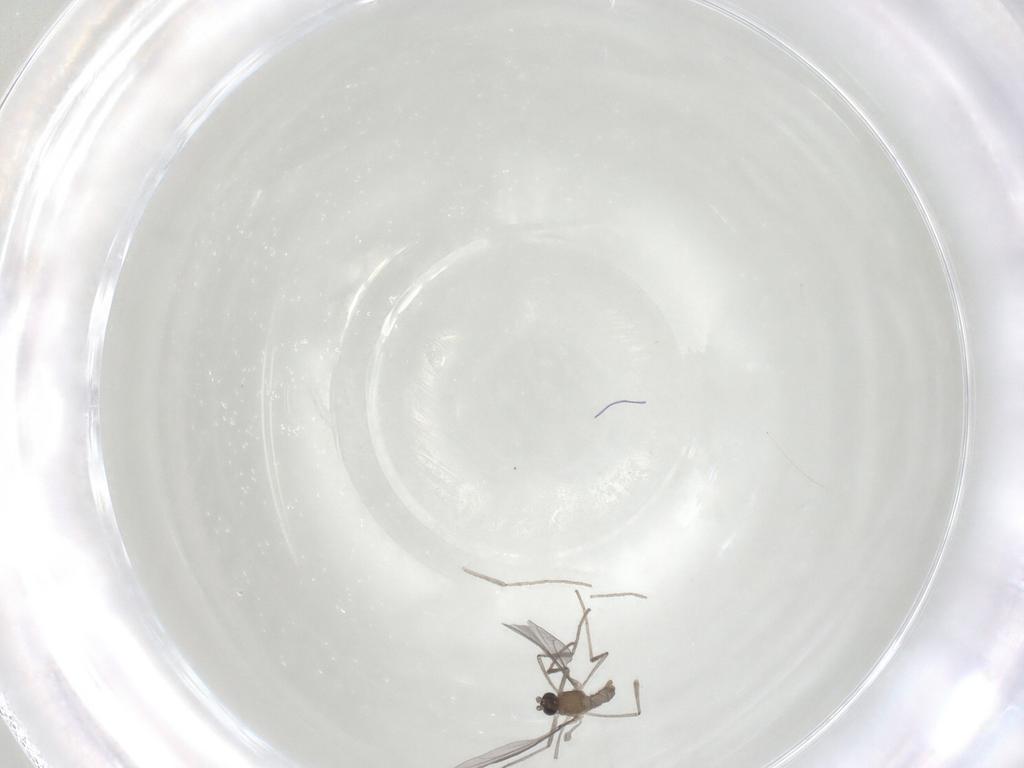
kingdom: Animalia
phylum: Arthropoda
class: Insecta
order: Diptera
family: Cecidomyiidae
